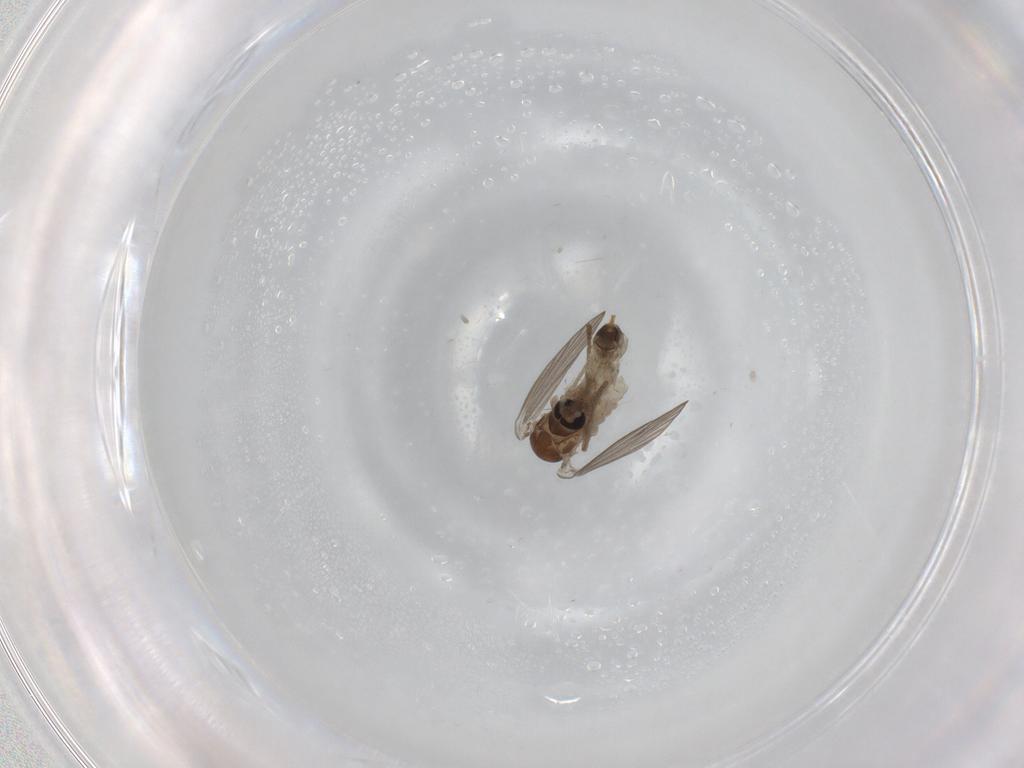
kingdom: Animalia
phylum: Arthropoda
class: Insecta
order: Diptera
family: Psychodidae
